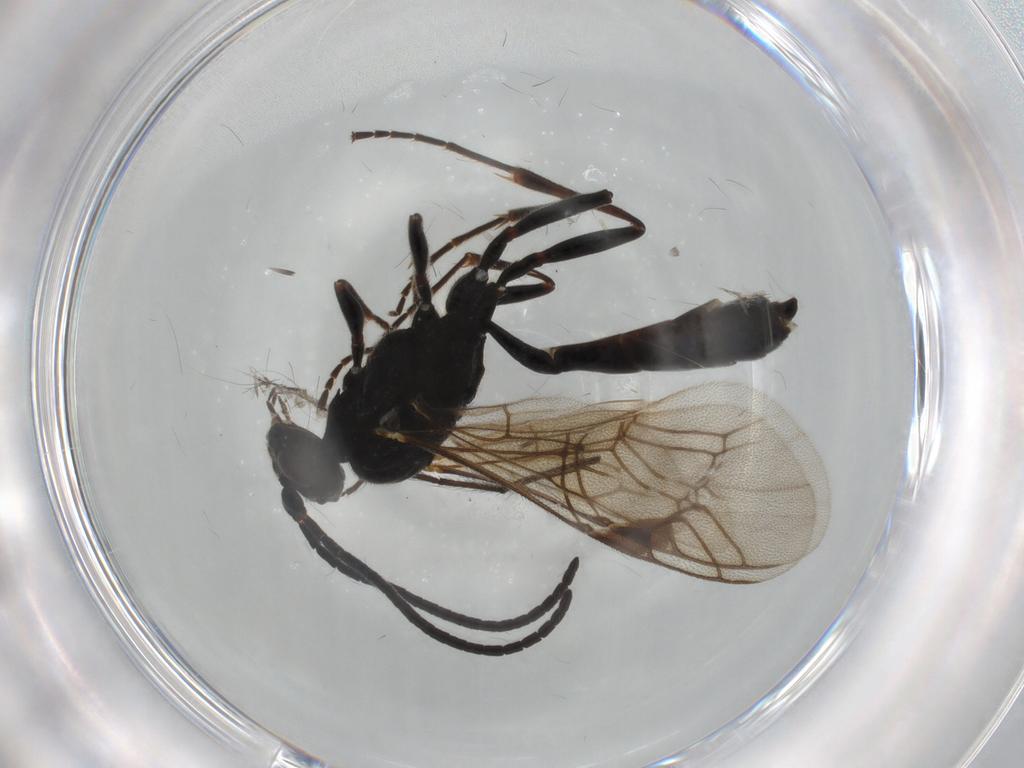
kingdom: Animalia
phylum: Arthropoda
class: Insecta
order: Hymenoptera
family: Ichneumonidae
